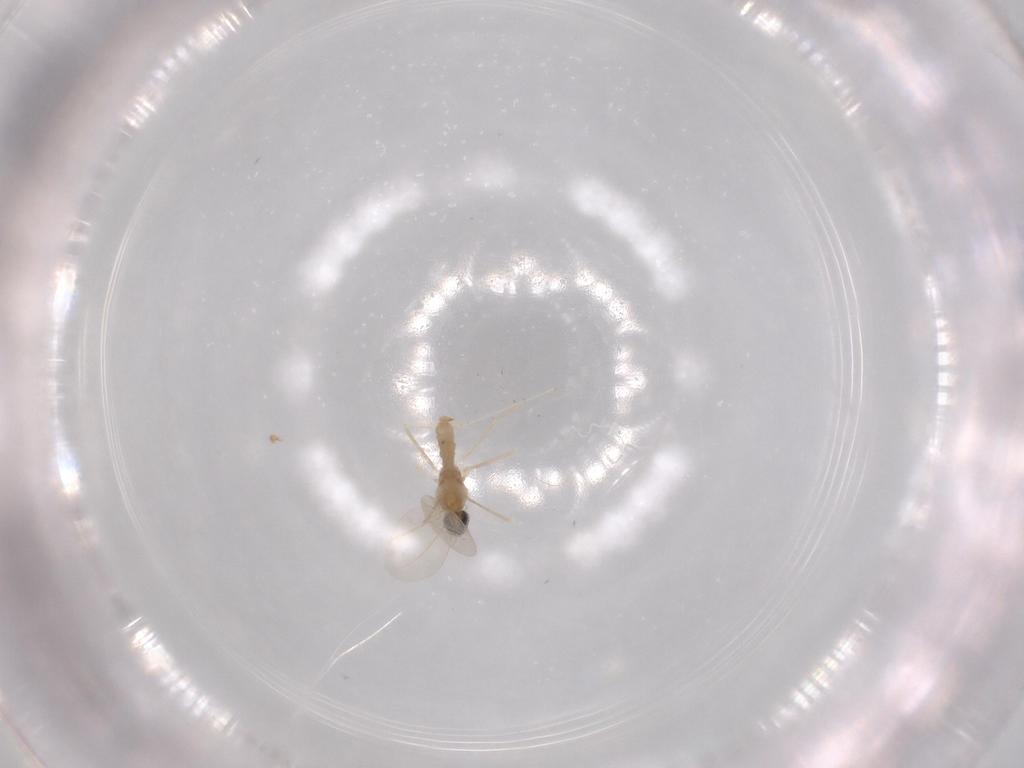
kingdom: Animalia
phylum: Arthropoda
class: Insecta
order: Diptera
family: Cecidomyiidae
